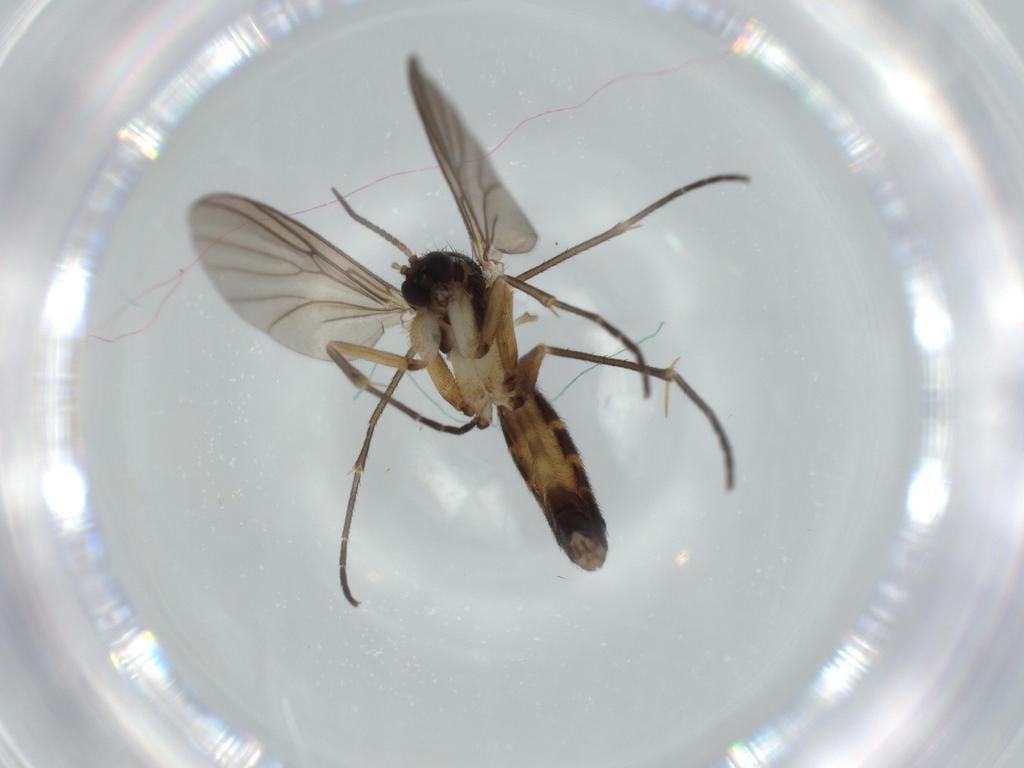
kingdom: Animalia
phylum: Arthropoda
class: Insecta
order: Diptera
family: Mycetophilidae
